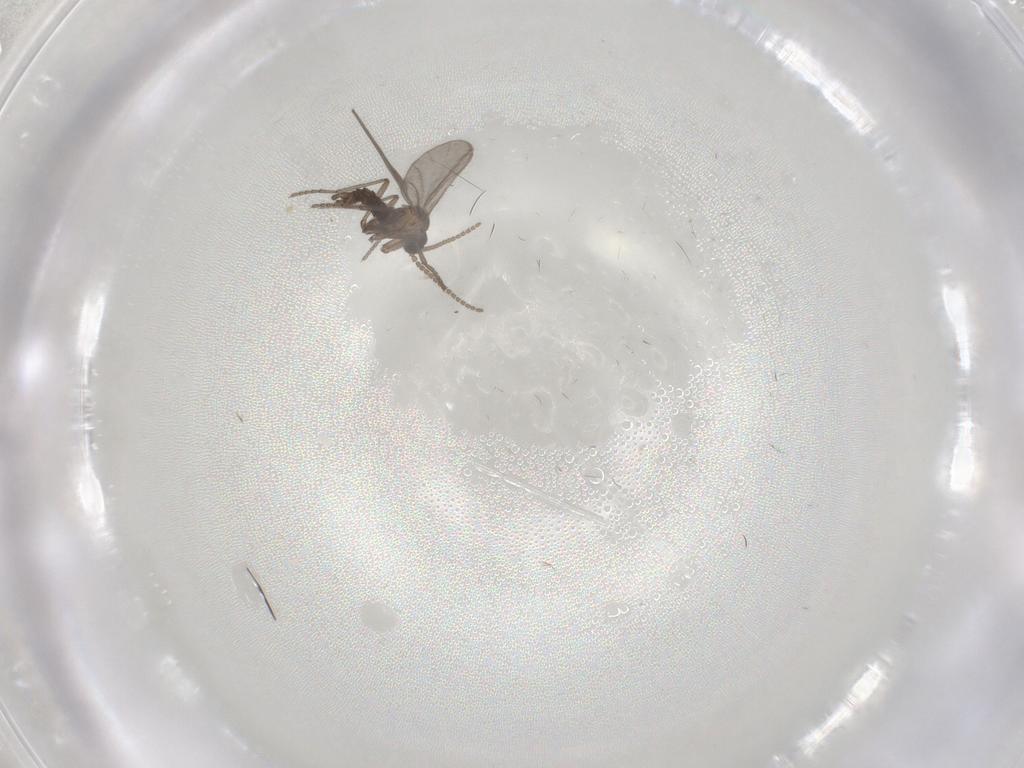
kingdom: Animalia
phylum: Arthropoda
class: Insecta
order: Diptera
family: Sciaridae
